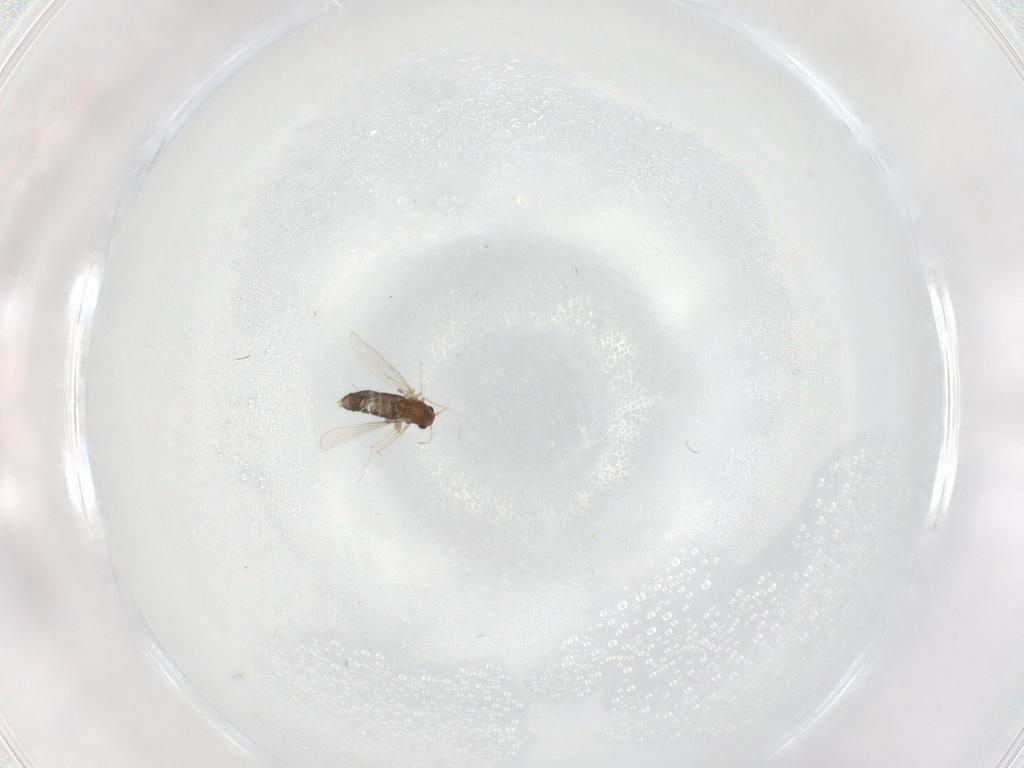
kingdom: Animalia
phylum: Arthropoda
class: Insecta
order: Diptera
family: Chironomidae
